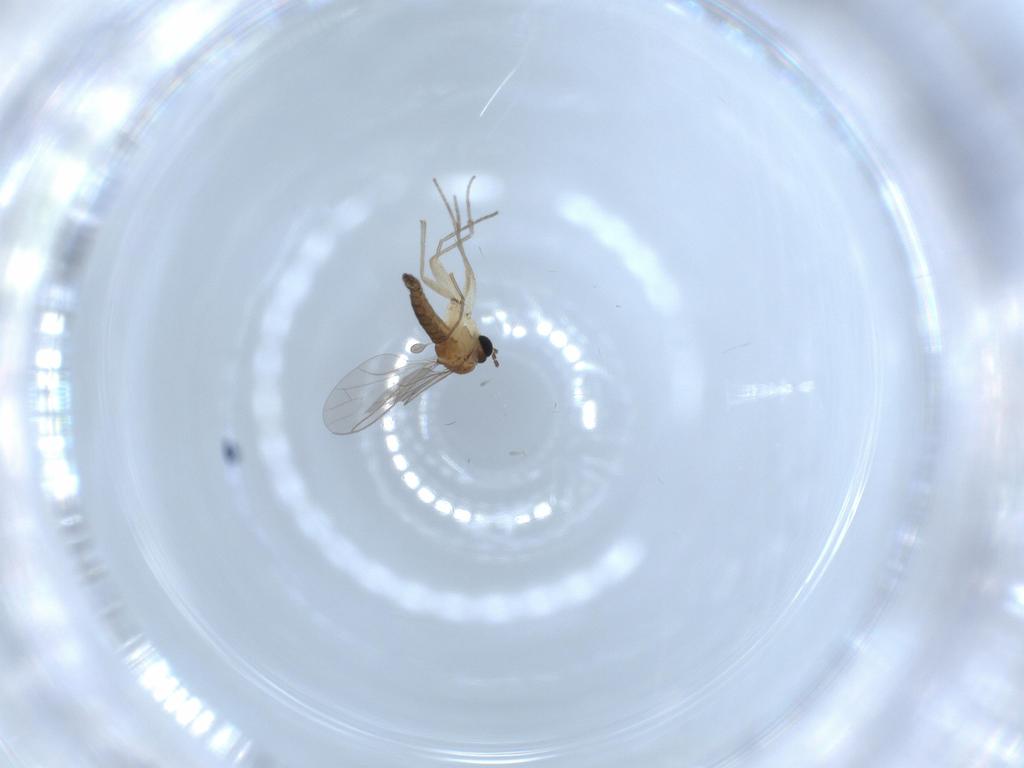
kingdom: Animalia
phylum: Arthropoda
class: Insecta
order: Diptera
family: Sciaridae
